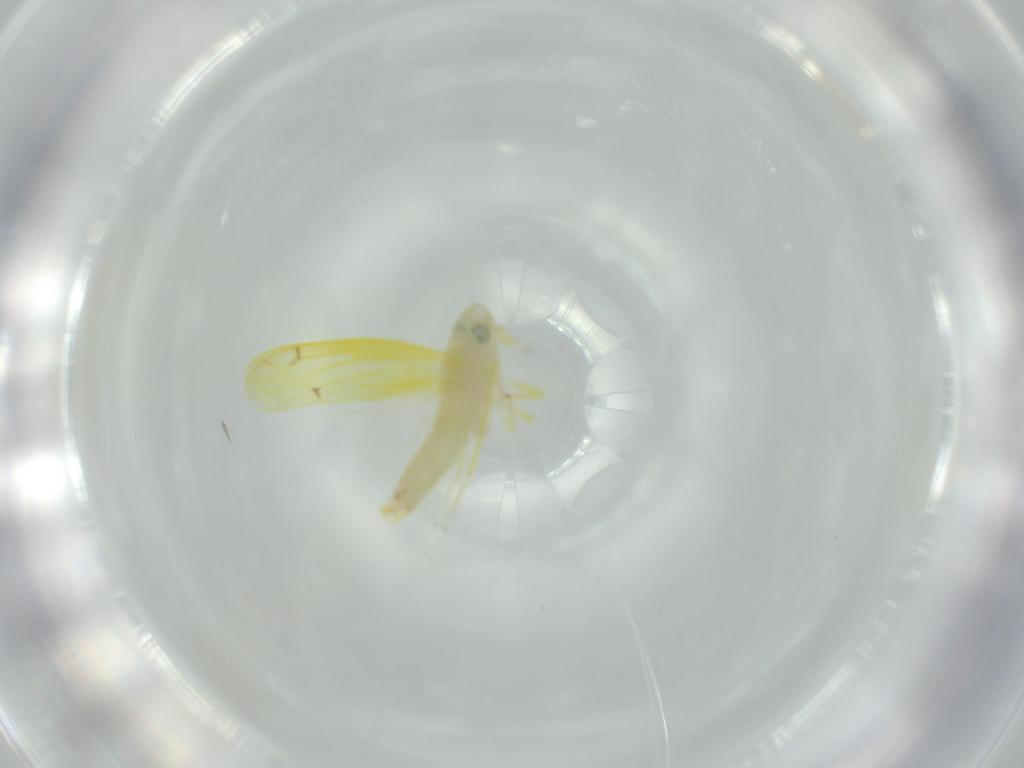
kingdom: Animalia
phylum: Arthropoda
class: Insecta
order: Hemiptera
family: Cicadellidae
